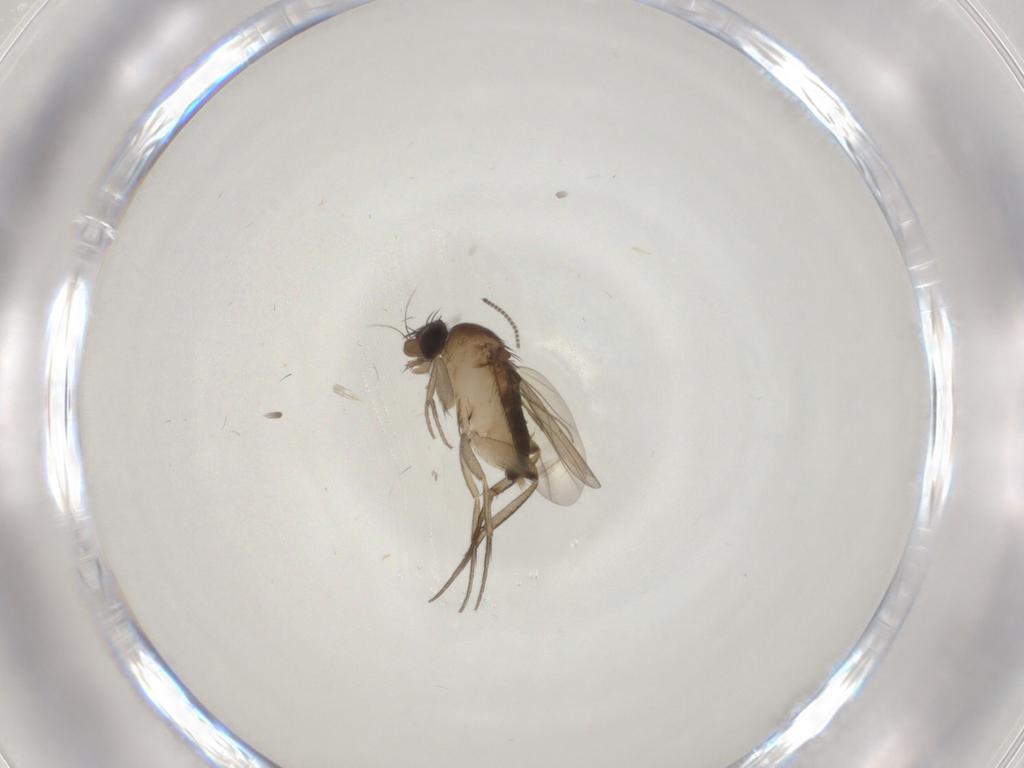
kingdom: Animalia
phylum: Arthropoda
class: Insecta
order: Diptera
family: Phoridae
